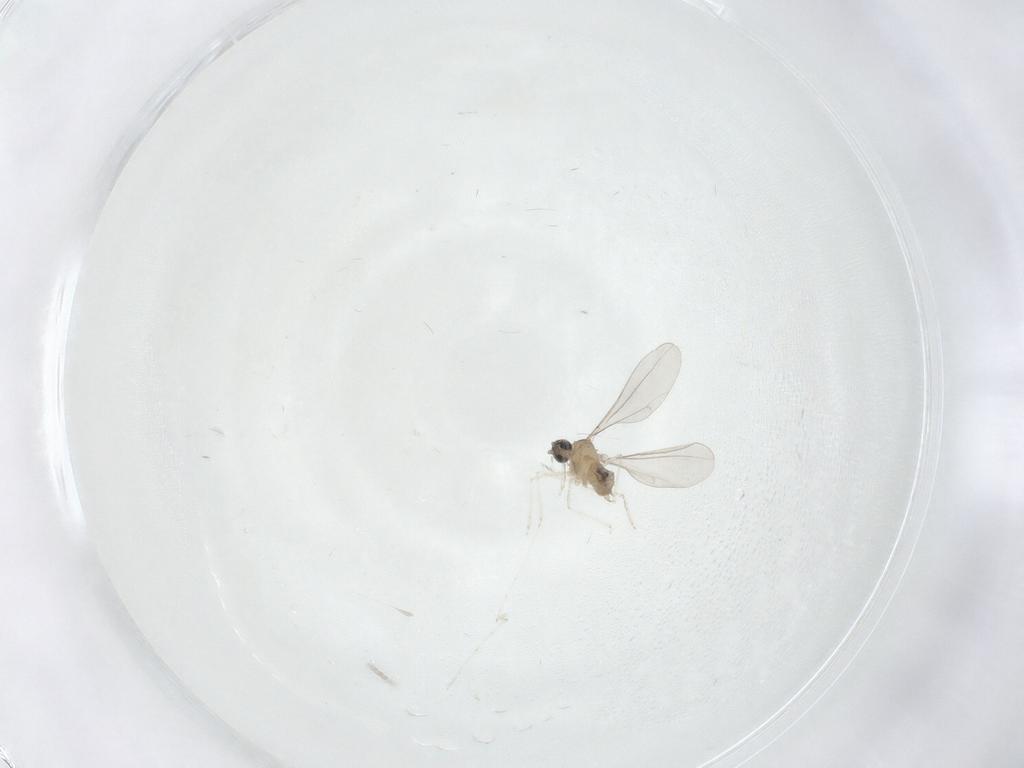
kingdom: Animalia
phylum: Arthropoda
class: Insecta
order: Diptera
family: Cecidomyiidae
